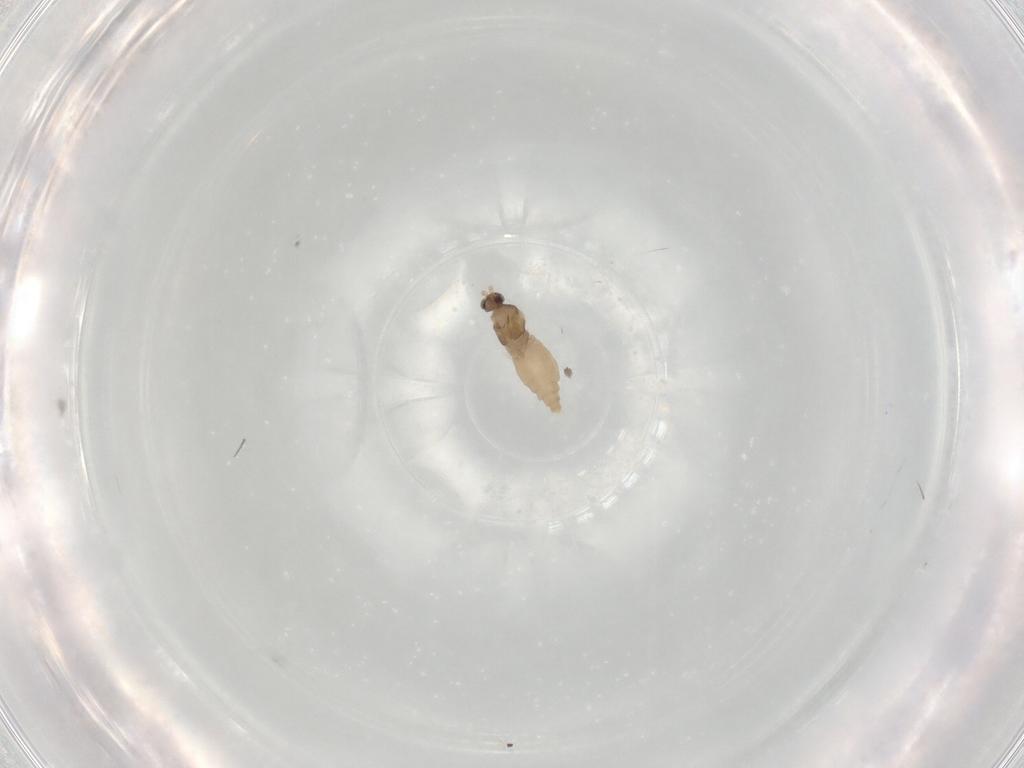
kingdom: Animalia
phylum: Arthropoda
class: Insecta
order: Diptera
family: Cecidomyiidae
